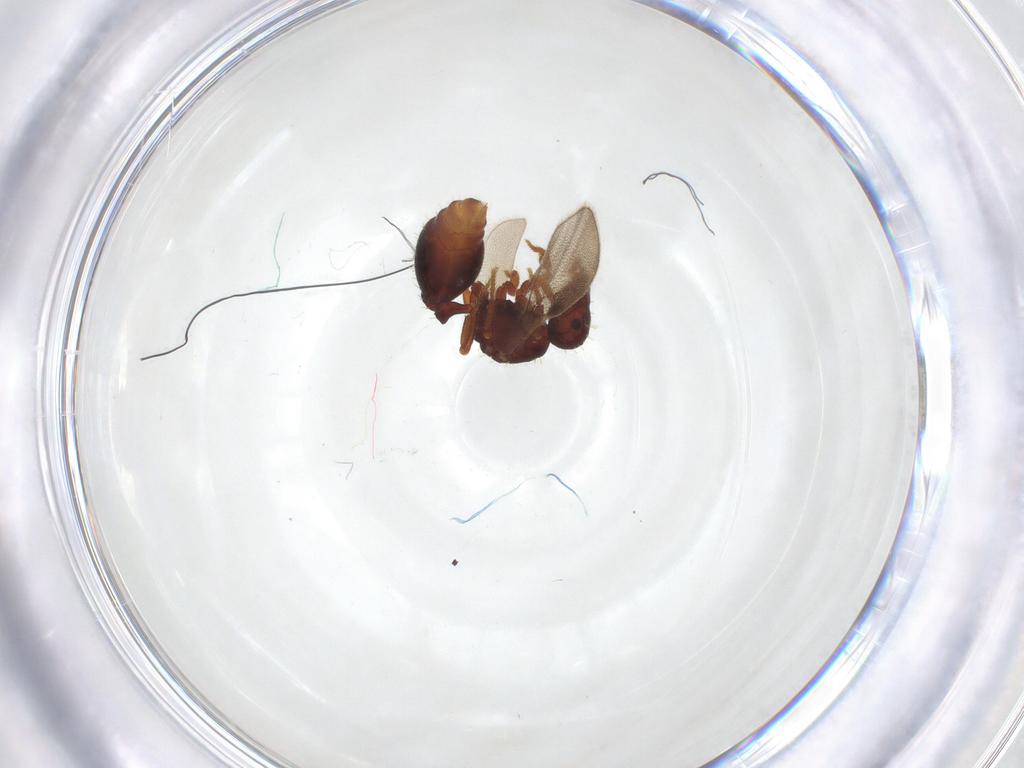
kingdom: Animalia
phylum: Arthropoda
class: Insecta
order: Hymenoptera
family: Formicidae
